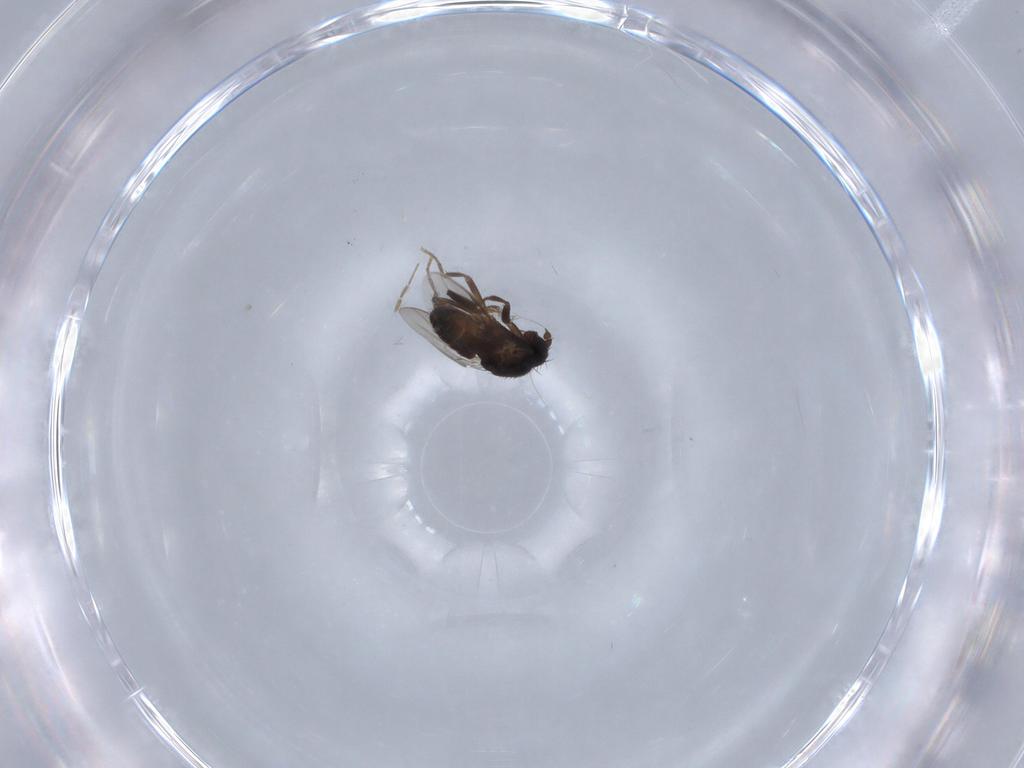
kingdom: Animalia
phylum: Arthropoda
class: Insecta
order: Diptera
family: Sphaeroceridae
